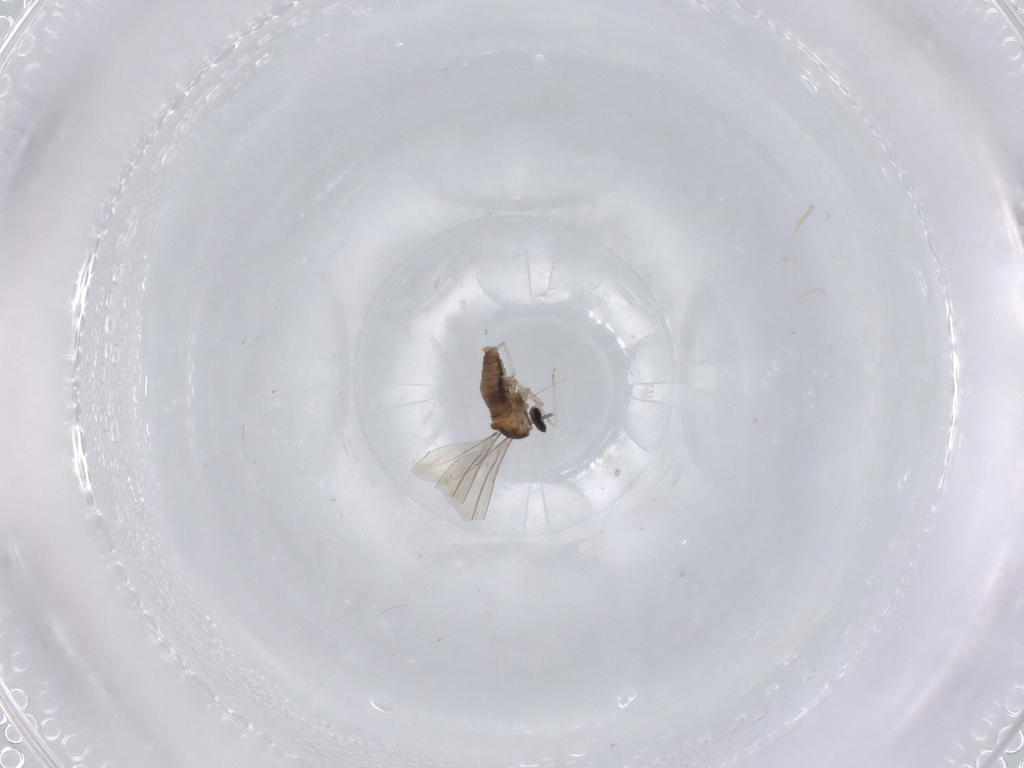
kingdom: Animalia
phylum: Arthropoda
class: Insecta
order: Diptera
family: Cecidomyiidae
